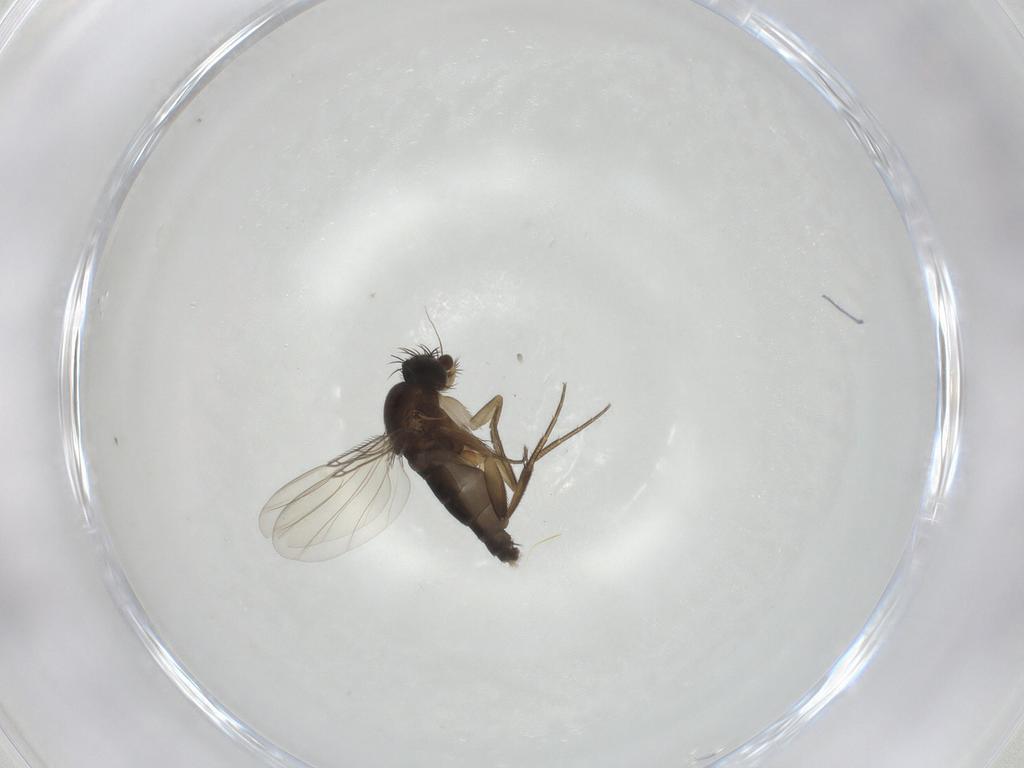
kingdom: Animalia
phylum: Arthropoda
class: Insecta
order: Diptera
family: Phoridae
